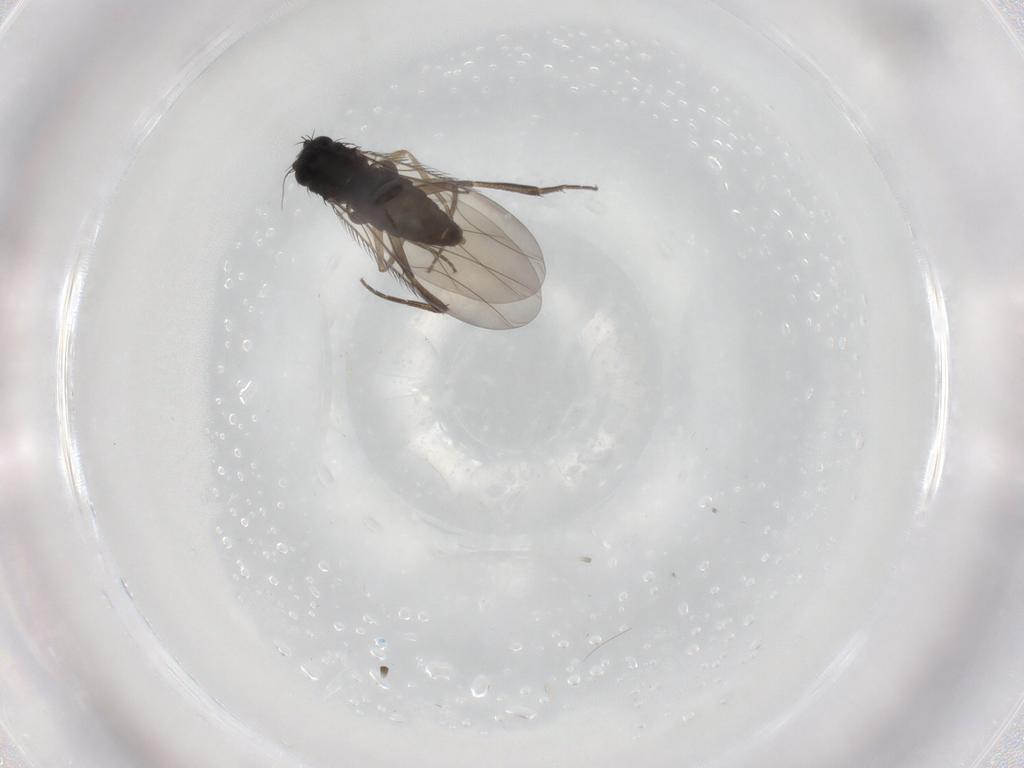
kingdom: Animalia
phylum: Arthropoda
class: Insecta
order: Diptera
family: Phoridae
